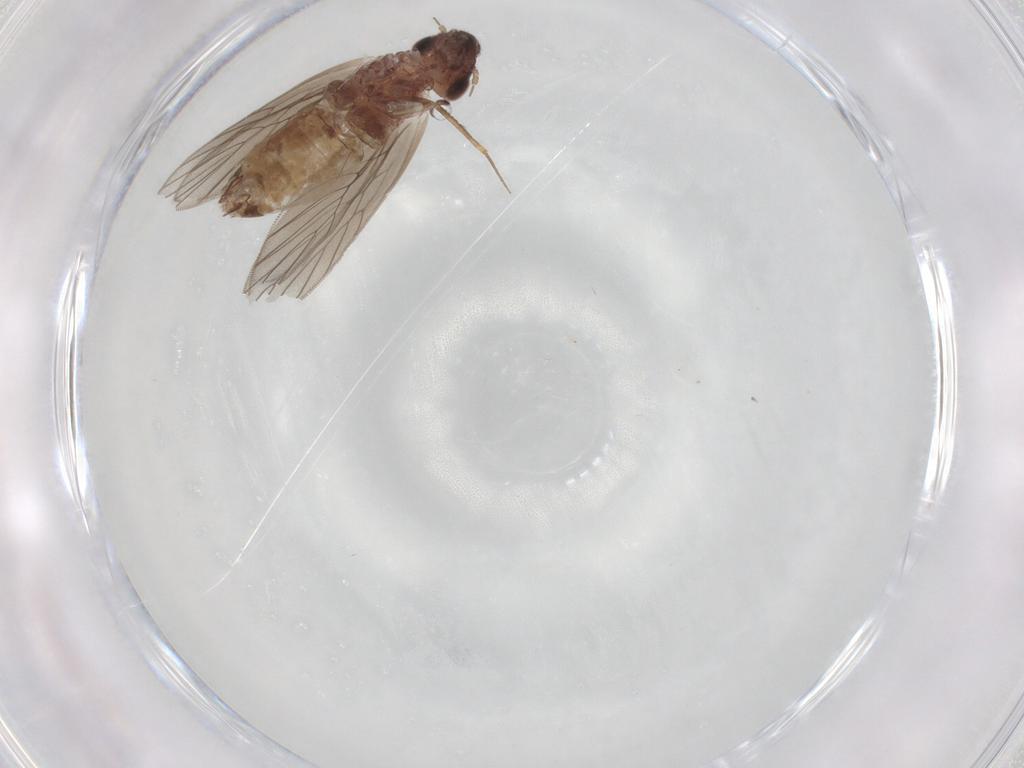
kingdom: Animalia
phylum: Arthropoda
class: Insecta
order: Psocodea
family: Lepidopsocidae
